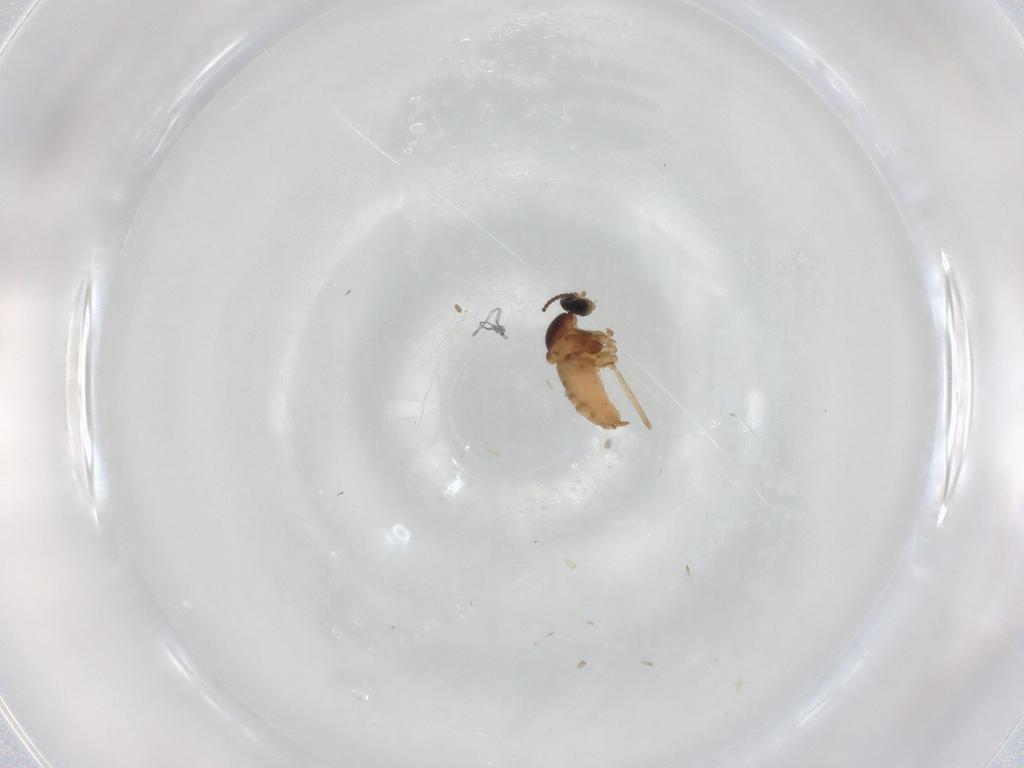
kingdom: Animalia
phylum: Arthropoda
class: Insecta
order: Diptera
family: Cecidomyiidae
